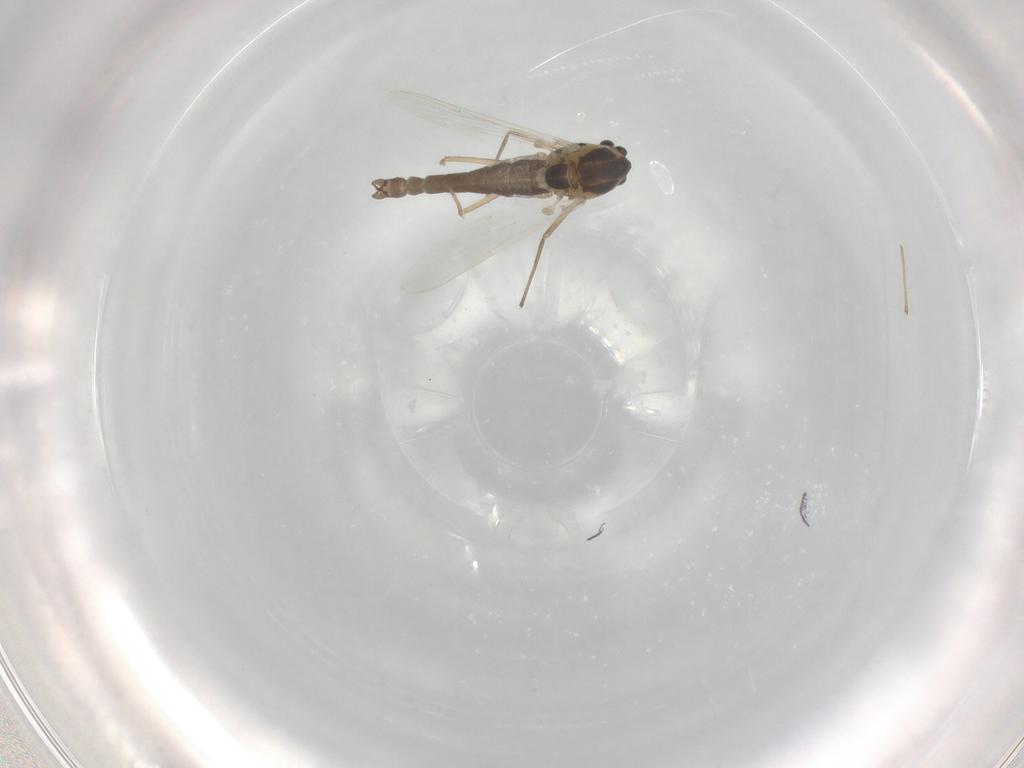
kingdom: Animalia
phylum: Arthropoda
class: Insecta
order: Diptera
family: Chironomidae
